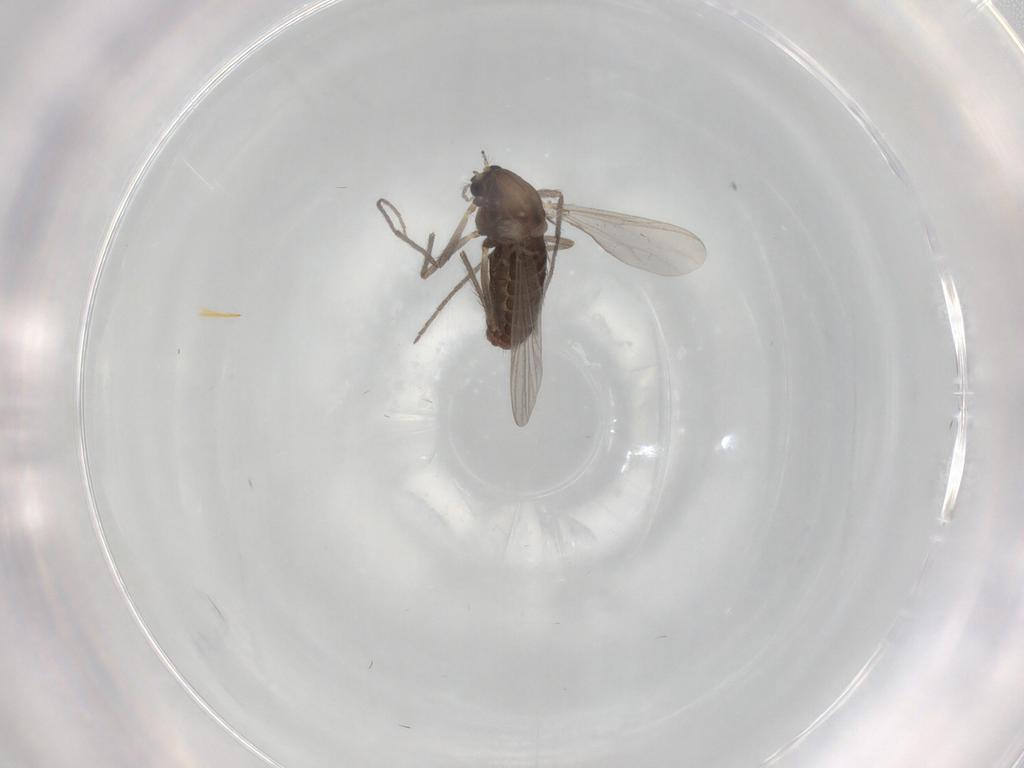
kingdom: Animalia
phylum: Arthropoda
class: Insecta
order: Diptera
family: Chironomidae
